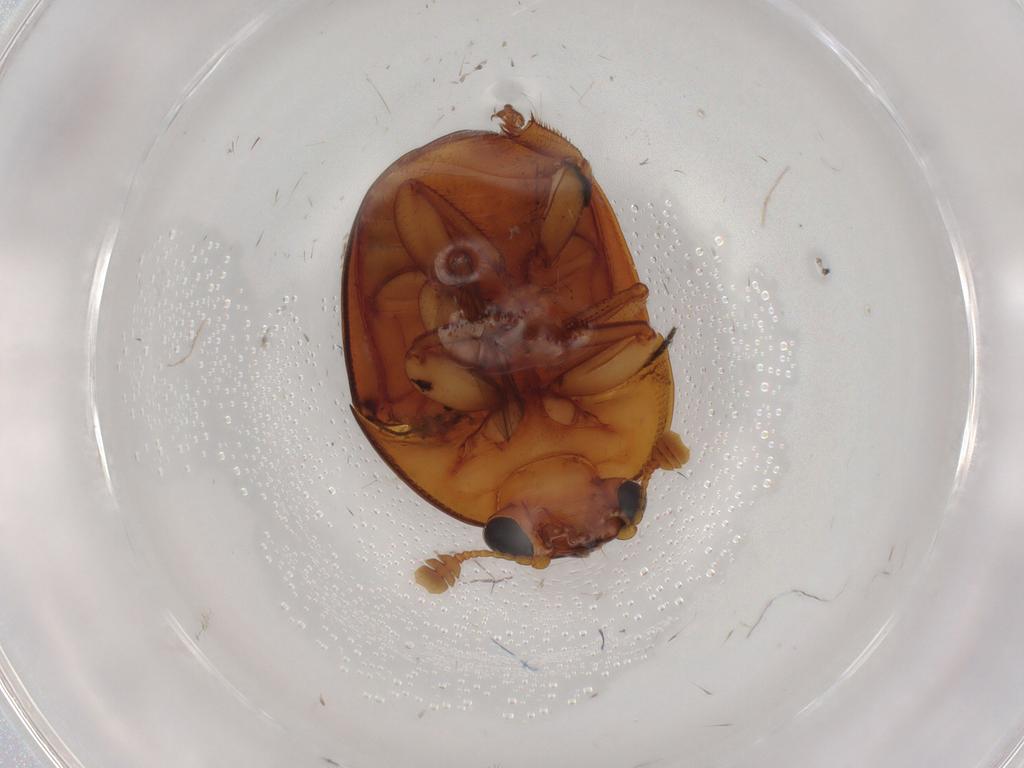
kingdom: Animalia
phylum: Arthropoda
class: Insecta
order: Coleoptera
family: Nitidulidae
